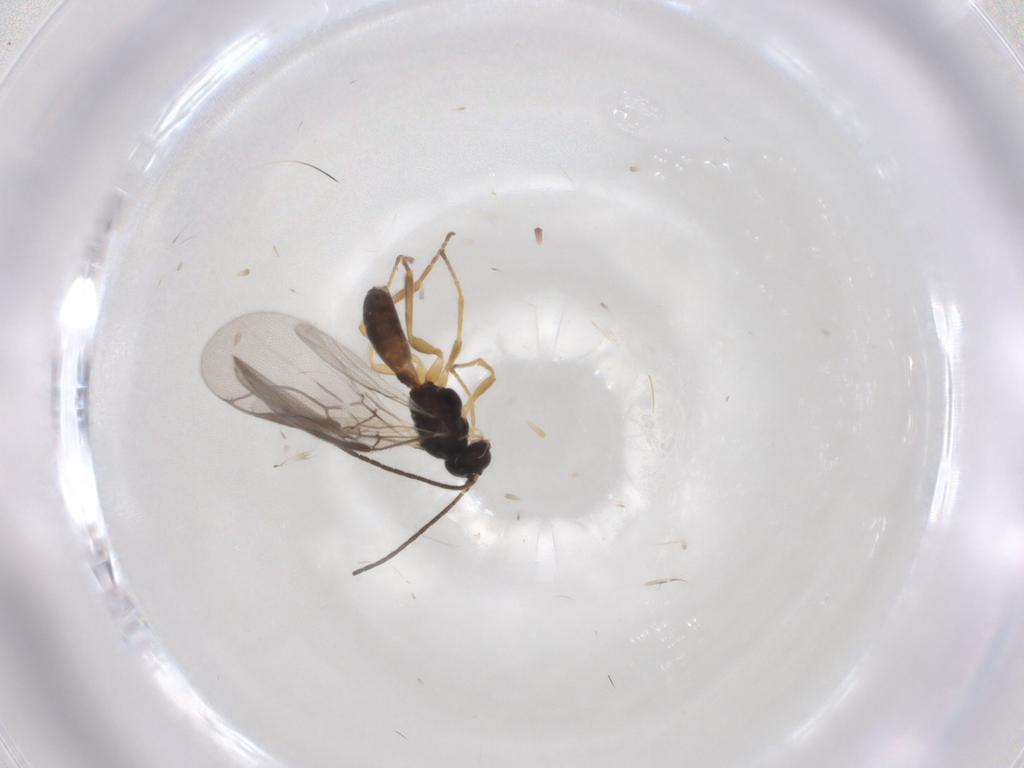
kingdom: Animalia
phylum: Arthropoda
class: Insecta
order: Hymenoptera
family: Braconidae
